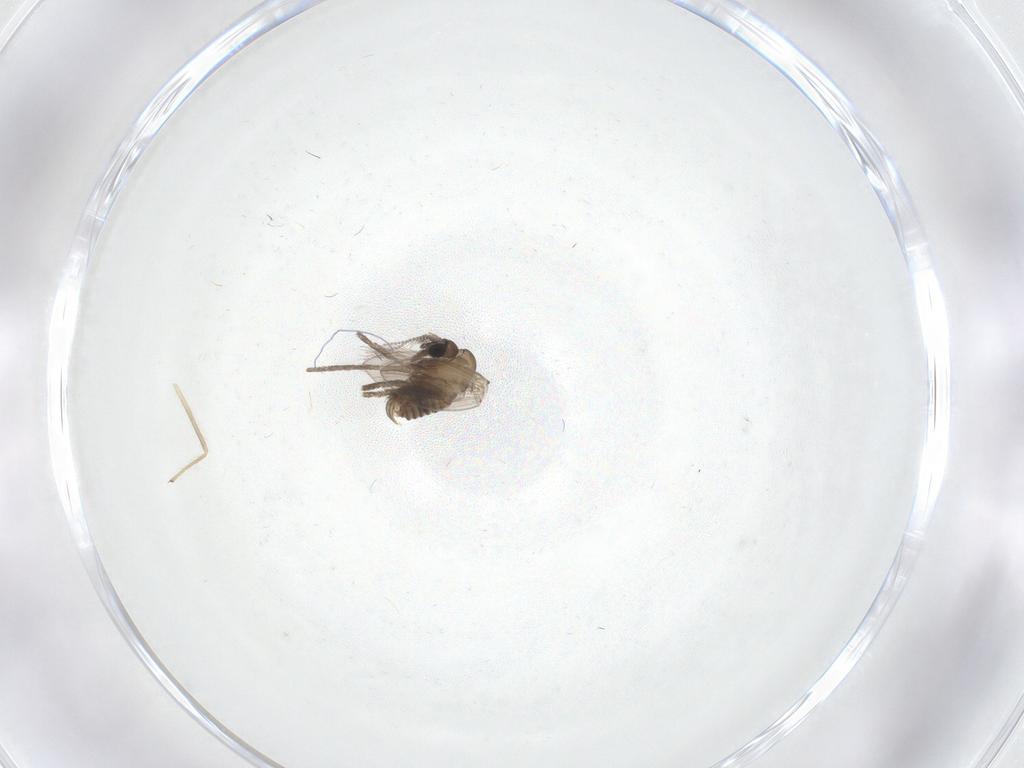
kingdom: Animalia
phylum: Arthropoda
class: Insecta
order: Diptera
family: Psychodidae
